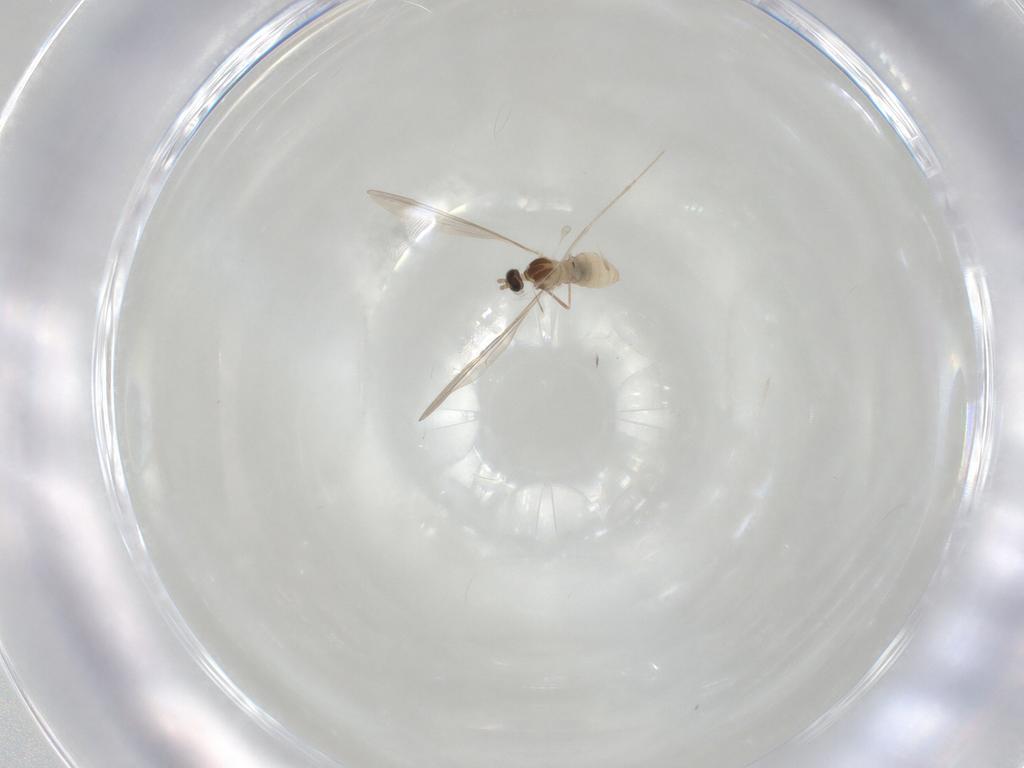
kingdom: Animalia
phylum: Arthropoda
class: Insecta
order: Diptera
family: Cecidomyiidae
